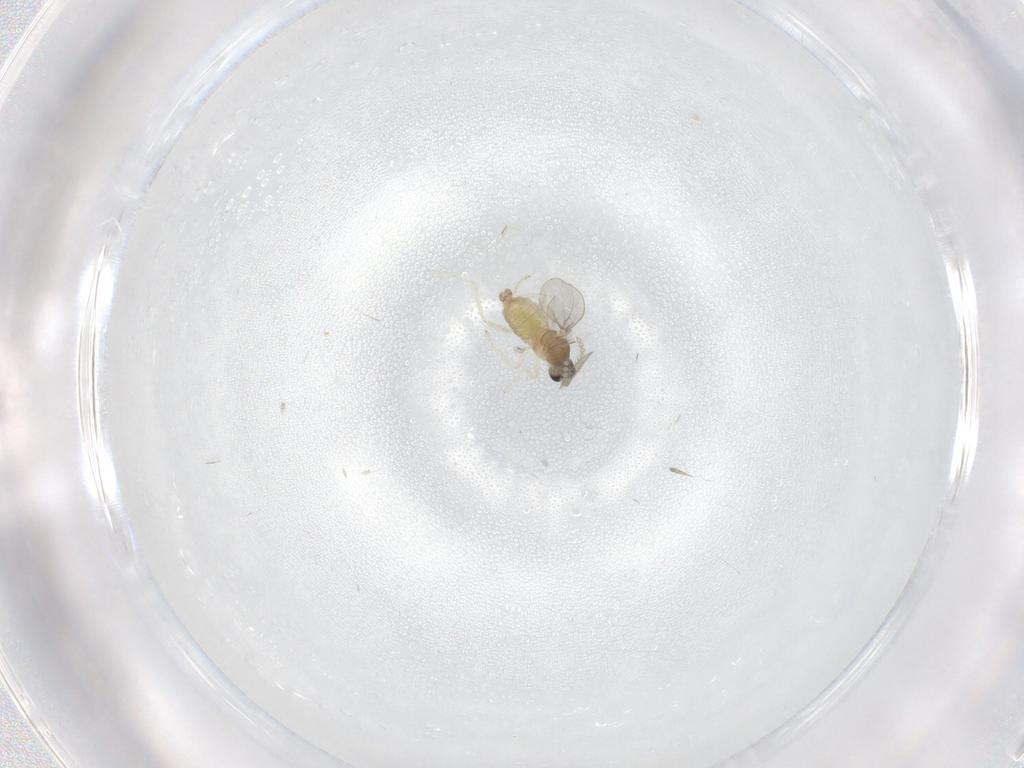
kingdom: Animalia
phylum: Arthropoda
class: Insecta
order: Diptera
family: Cecidomyiidae
